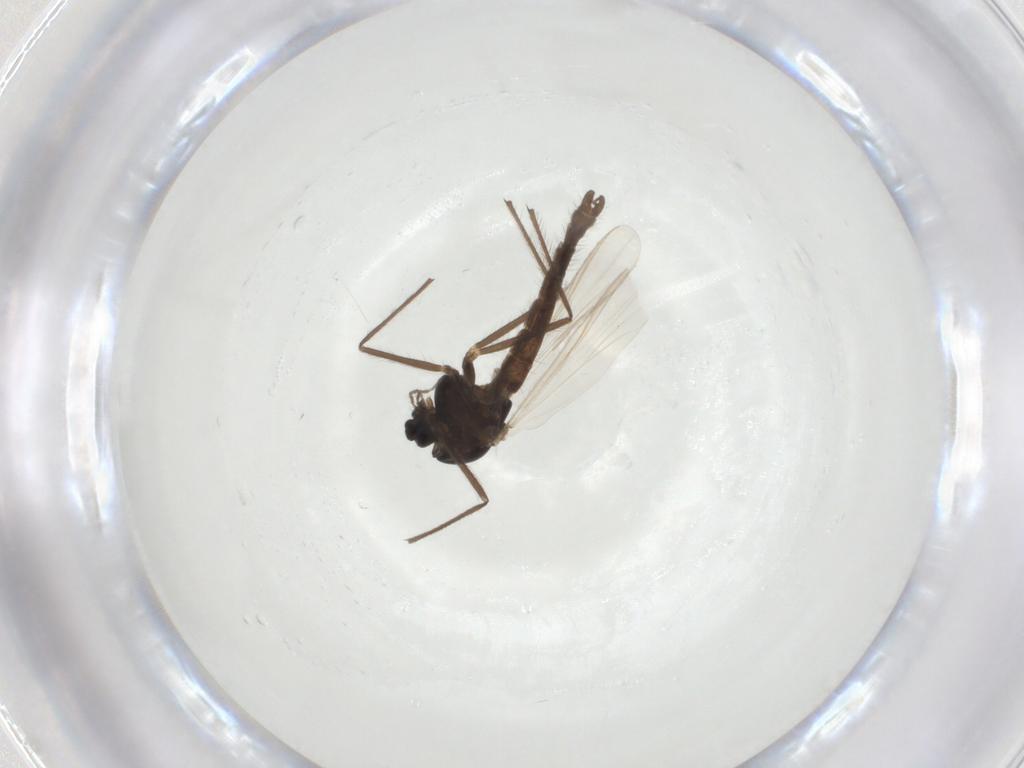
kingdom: Animalia
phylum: Arthropoda
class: Insecta
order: Diptera
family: Chironomidae
